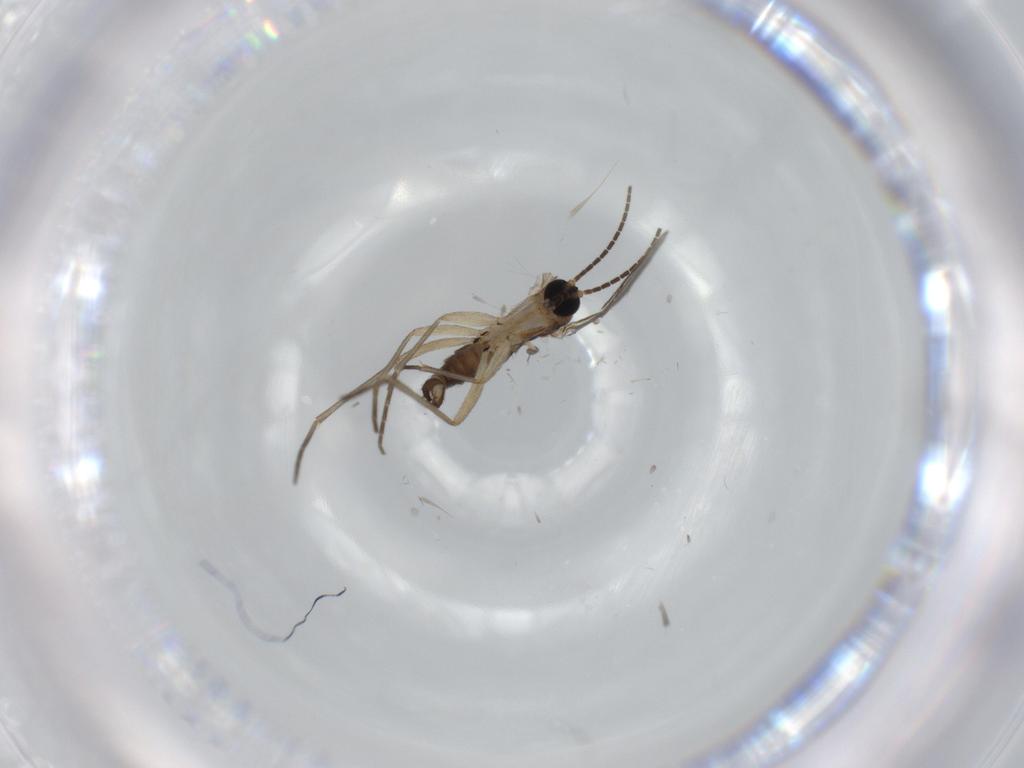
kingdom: Animalia
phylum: Arthropoda
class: Insecta
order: Diptera
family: Sciaridae
